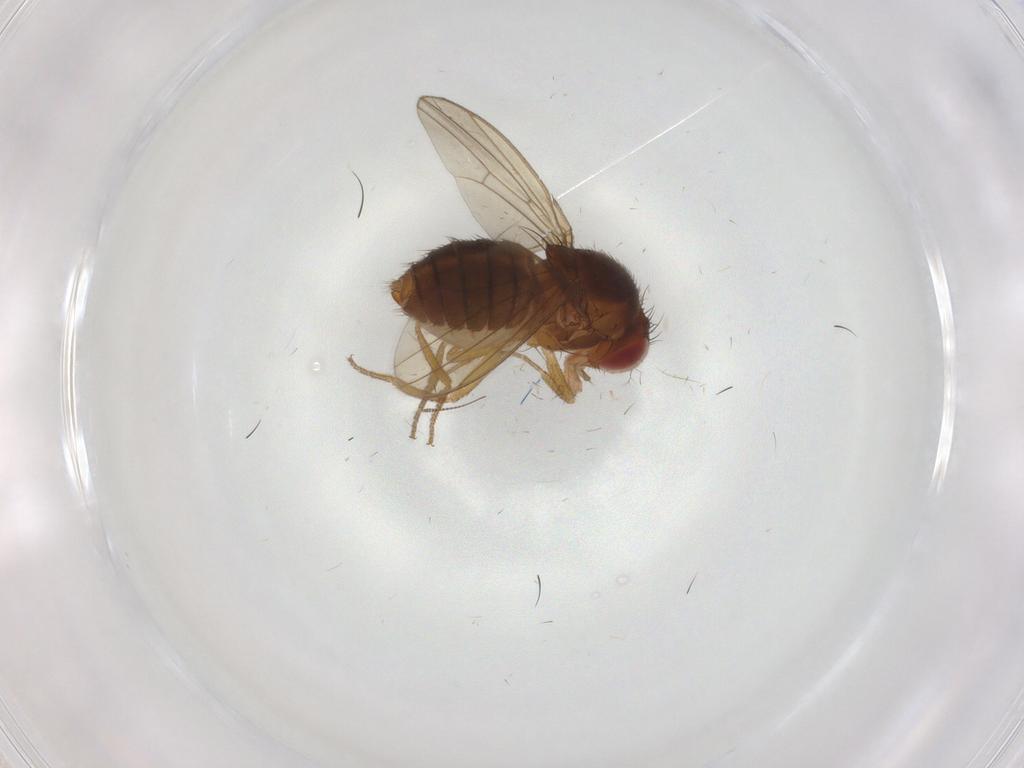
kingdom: Animalia
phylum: Arthropoda
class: Insecta
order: Diptera
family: Drosophilidae
